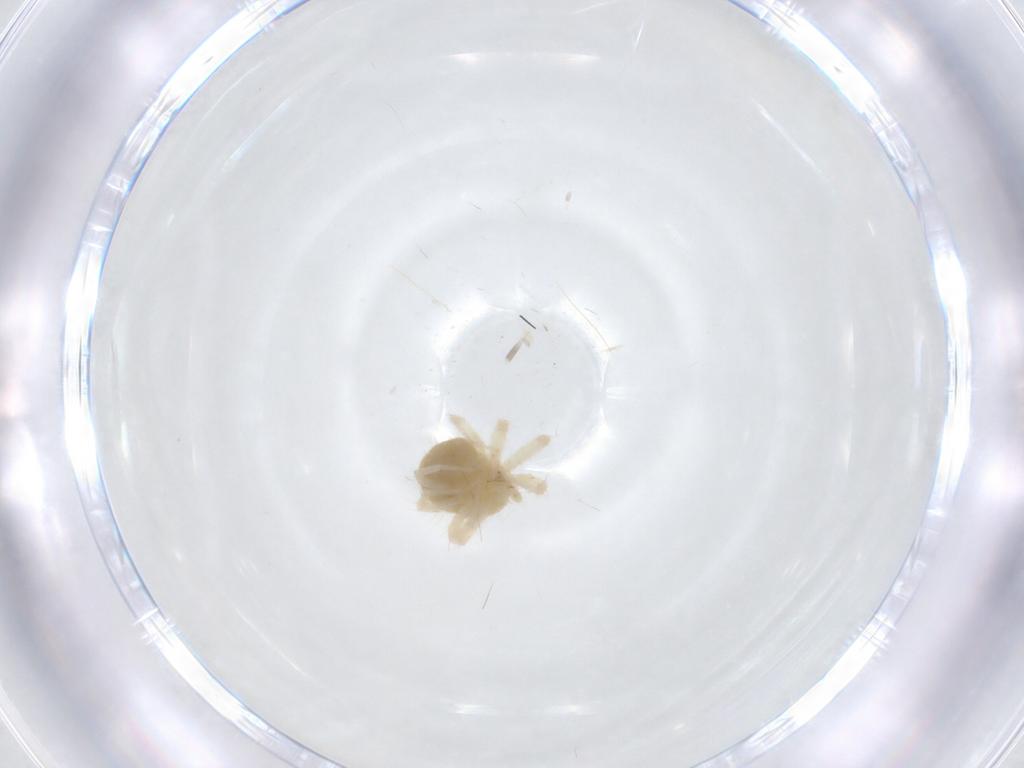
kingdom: Animalia
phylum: Arthropoda
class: Arachnida
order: Trombidiformes
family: Anystidae
